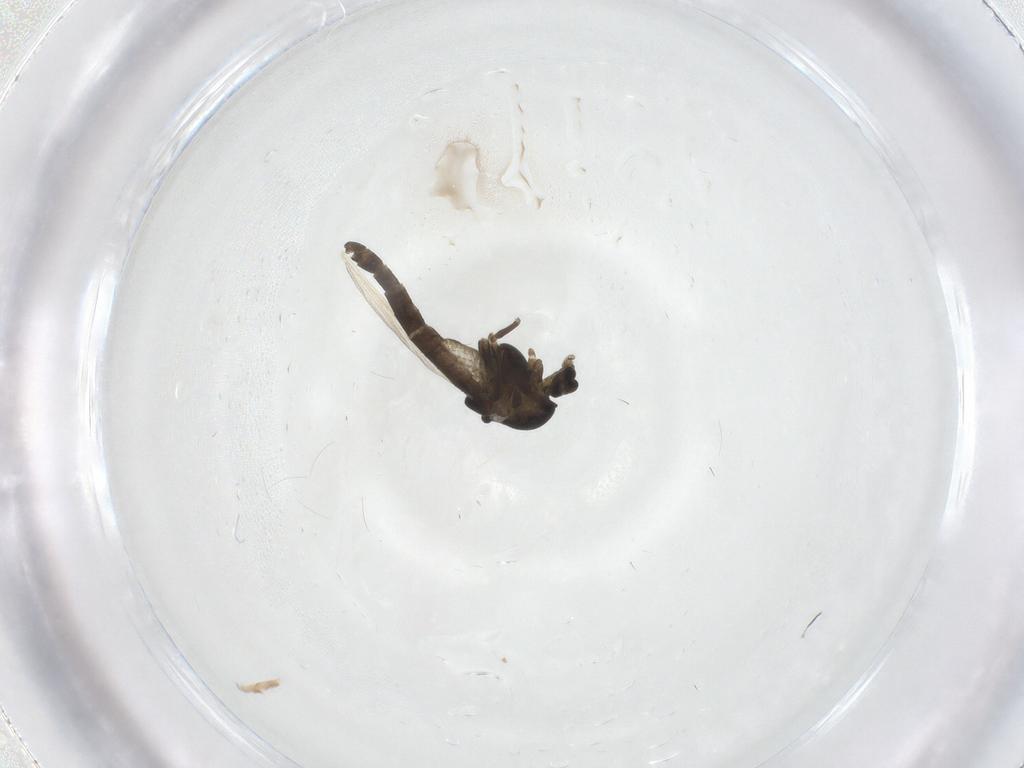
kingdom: Animalia
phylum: Arthropoda
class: Insecta
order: Diptera
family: Chironomidae
